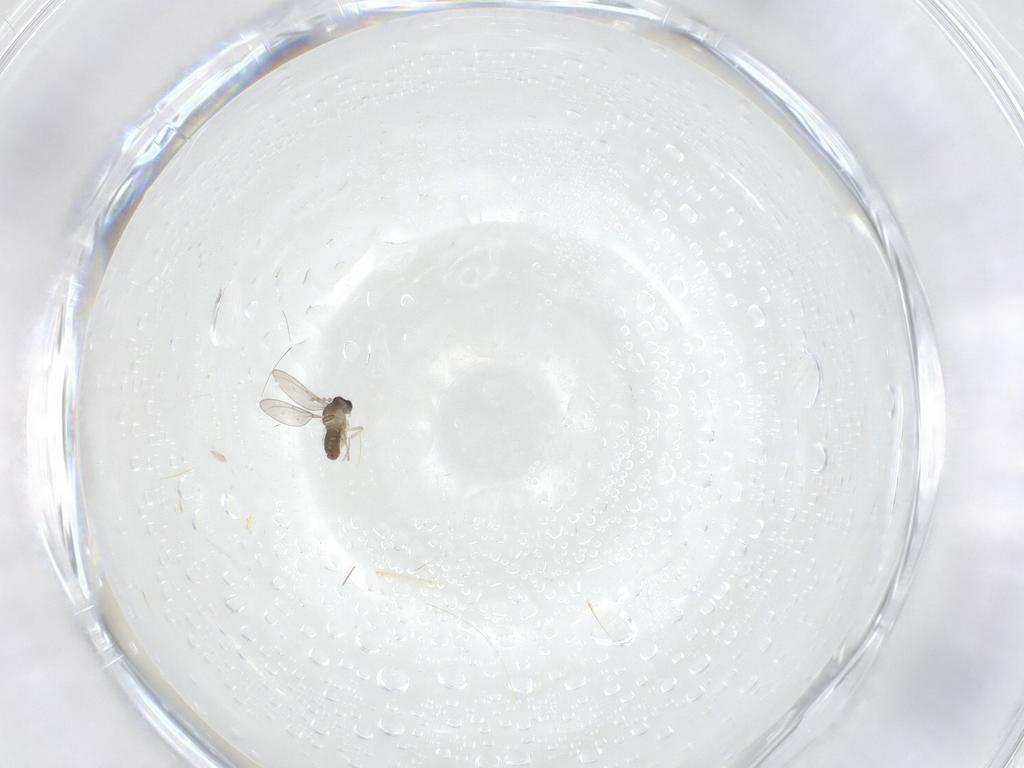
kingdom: Animalia
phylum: Arthropoda
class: Insecta
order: Diptera
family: Cecidomyiidae
